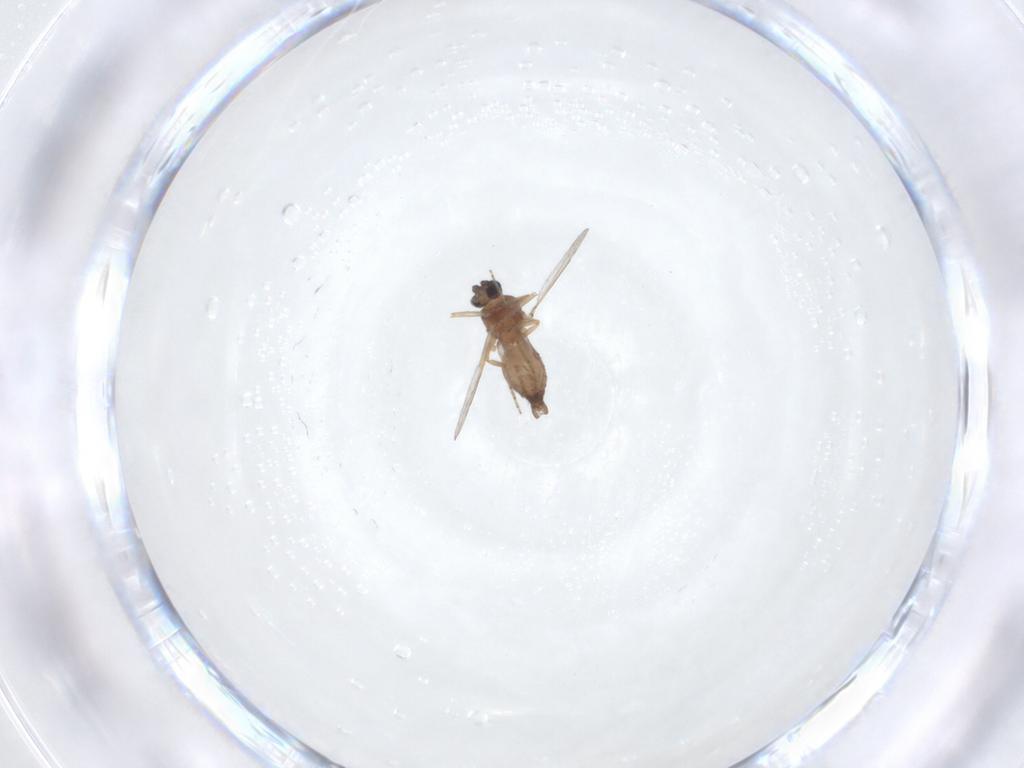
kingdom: Animalia
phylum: Arthropoda
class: Insecta
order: Diptera
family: Ceratopogonidae
